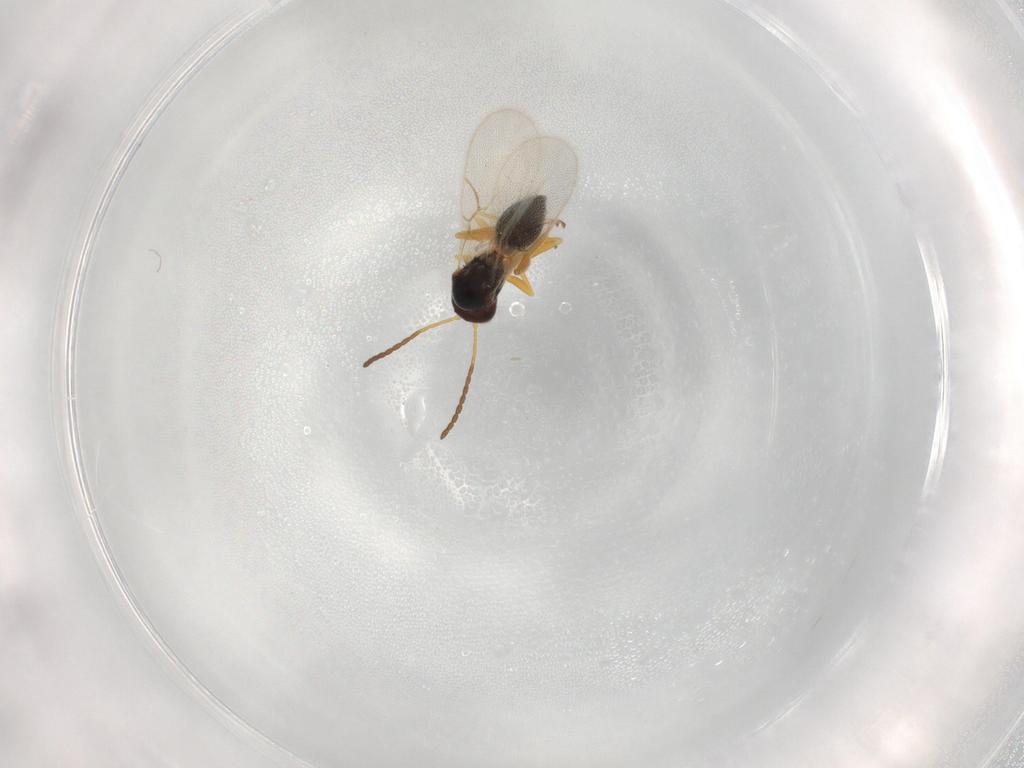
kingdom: Animalia
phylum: Arthropoda
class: Insecta
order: Hymenoptera
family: Figitidae
